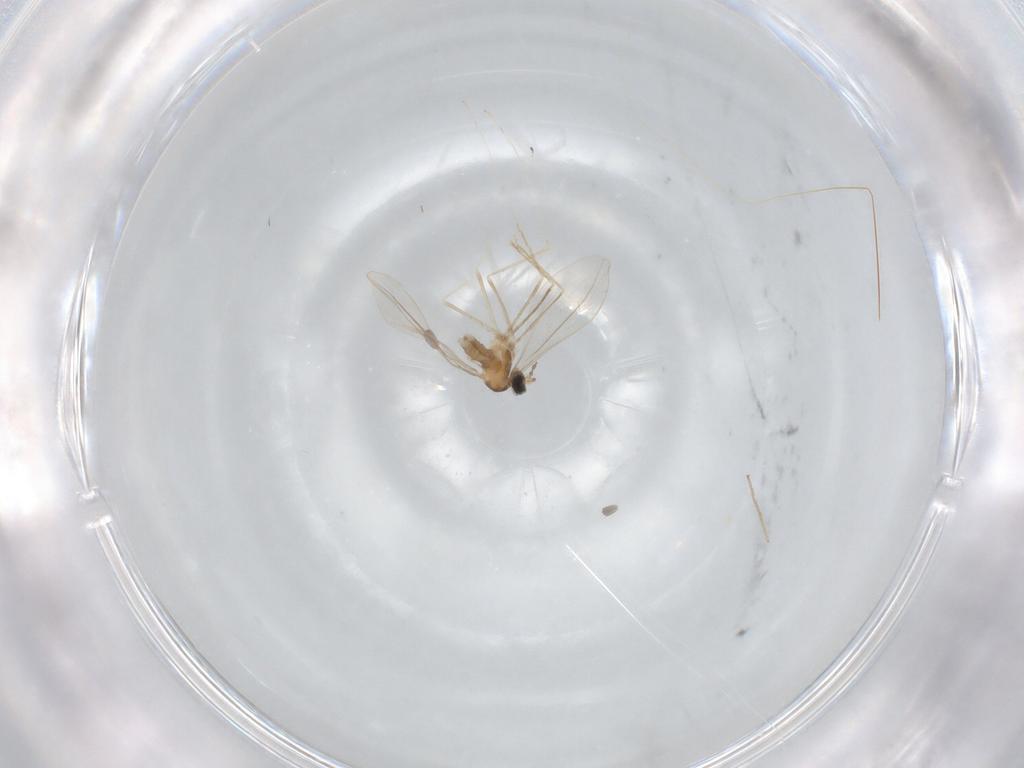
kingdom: Animalia
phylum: Arthropoda
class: Insecta
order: Diptera
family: Cecidomyiidae
